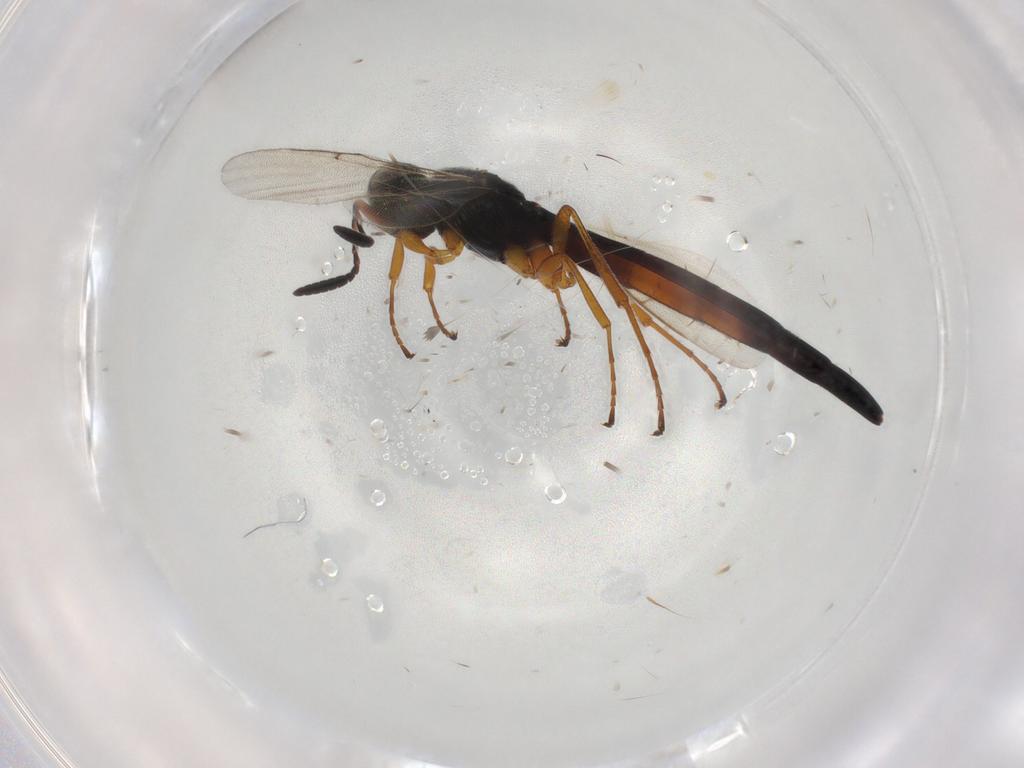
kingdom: Animalia
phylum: Arthropoda
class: Insecta
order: Hymenoptera
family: Scelionidae
